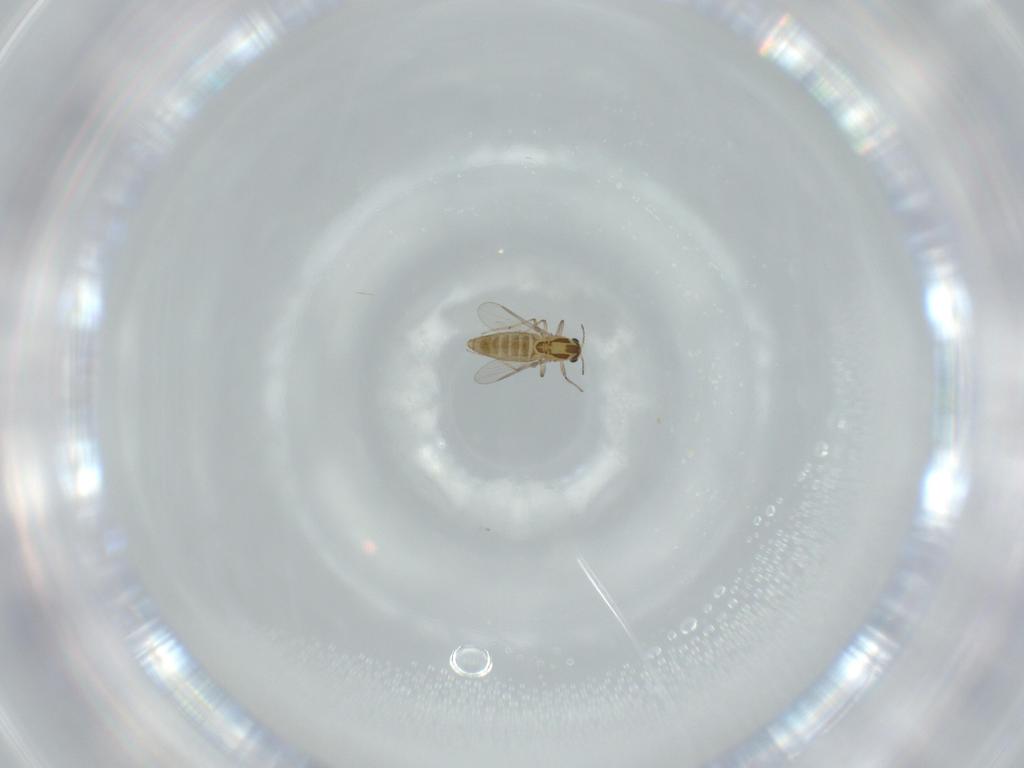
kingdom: Animalia
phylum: Arthropoda
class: Insecta
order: Diptera
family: Chironomidae
